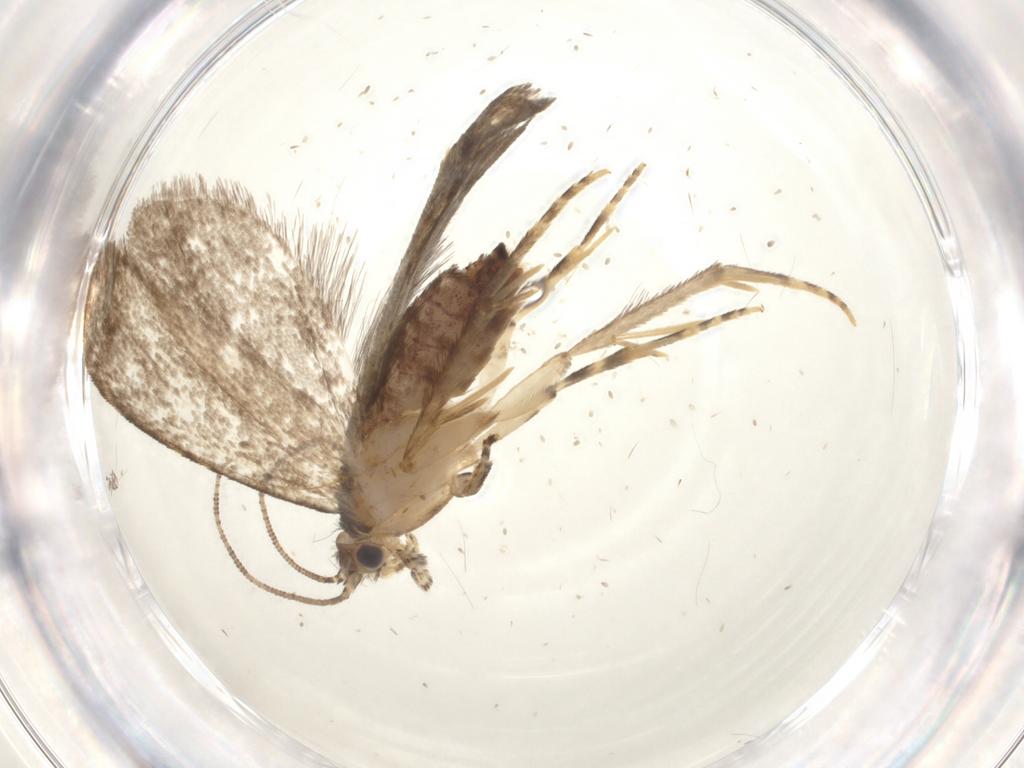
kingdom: Animalia
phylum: Arthropoda
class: Insecta
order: Lepidoptera
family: Tineidae
